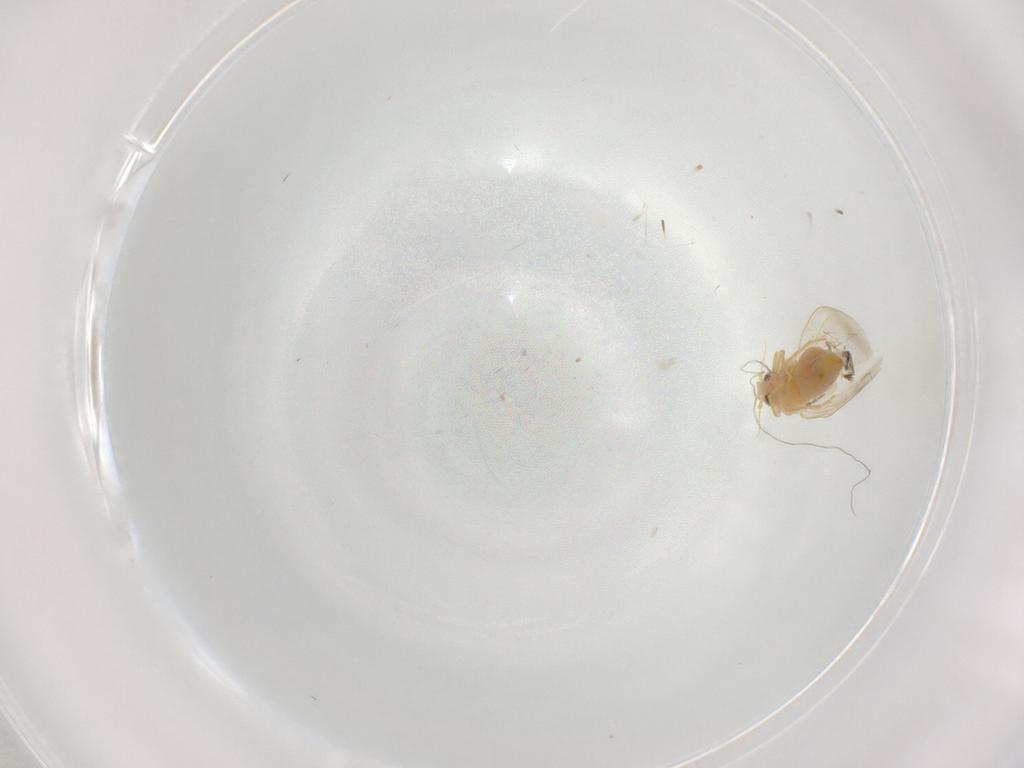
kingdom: Animalia
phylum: Arthropoda
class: Insecta
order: Hemiptera
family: Aleyrodidae
